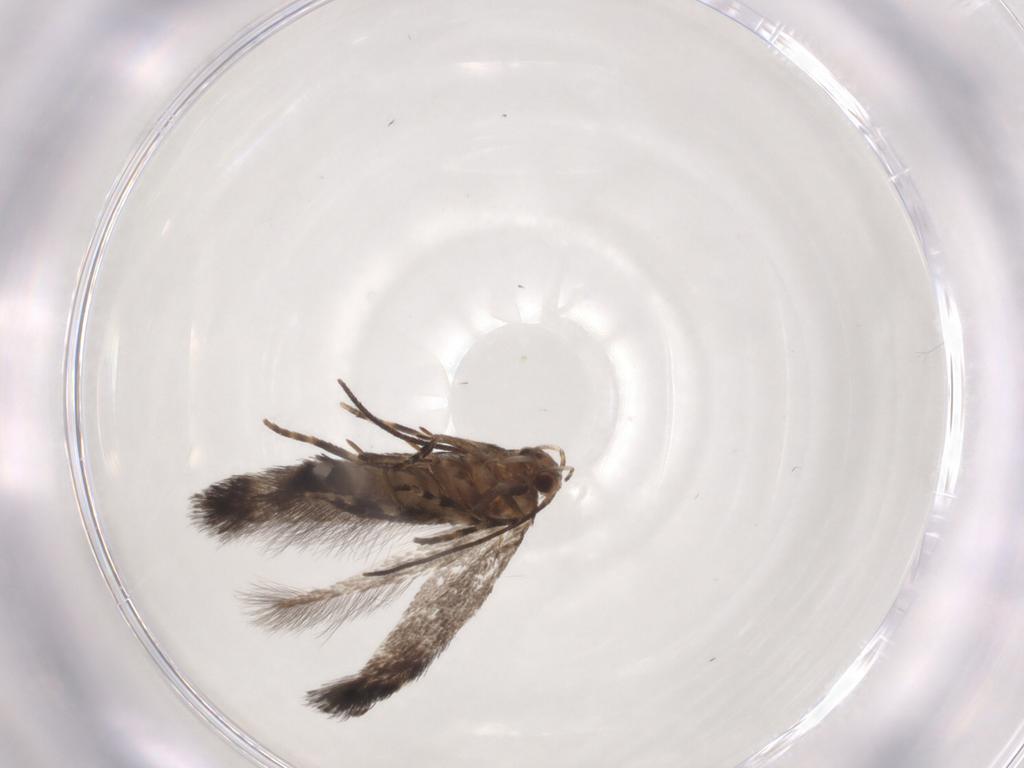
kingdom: Animalia
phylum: Arthropoda
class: Insecta
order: Lepidoptera
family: Elachistidae
